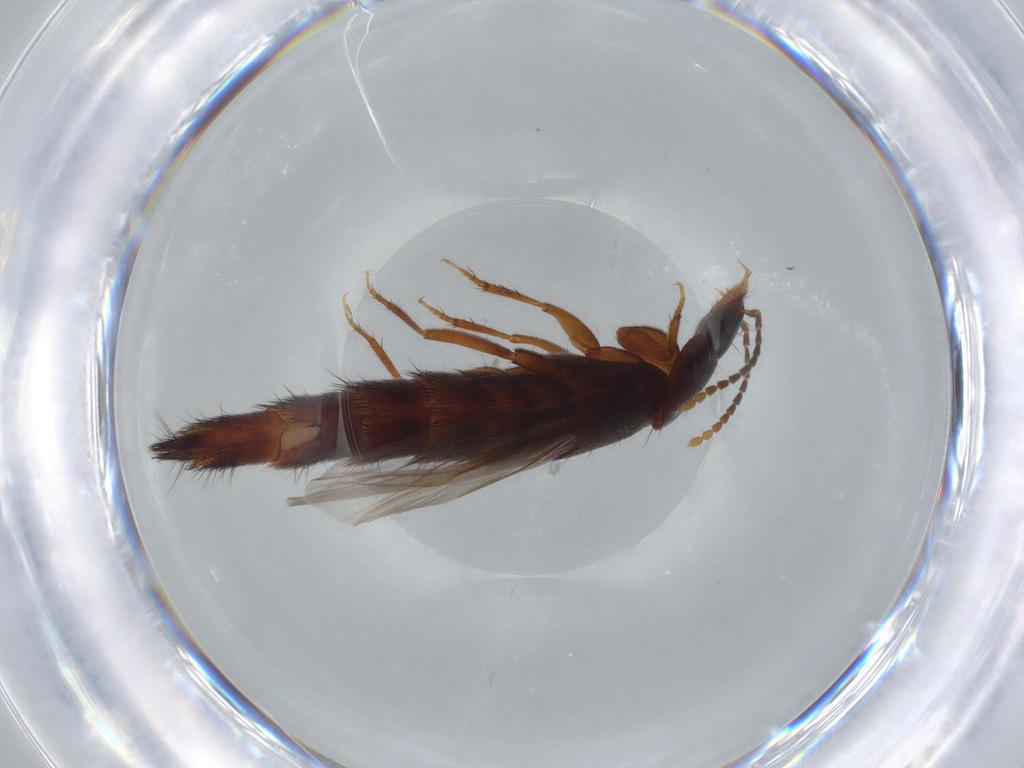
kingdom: Animalia
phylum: Arthropoda
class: Insecta
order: Coleoptera
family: Staphylinidae
